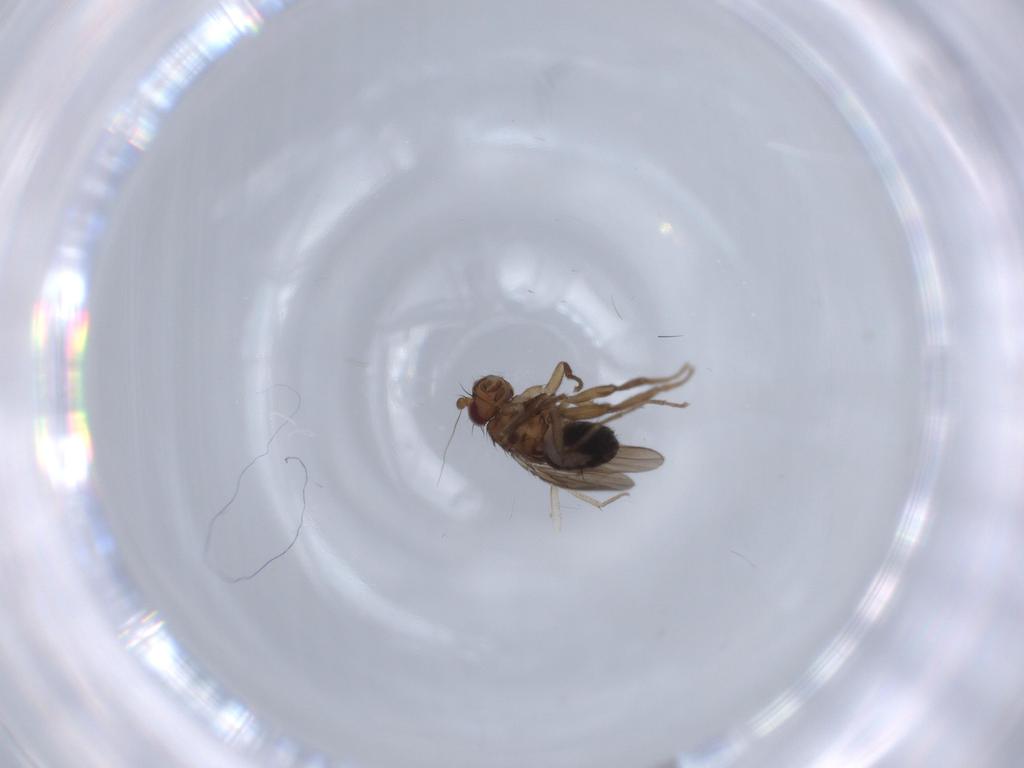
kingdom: Animalia
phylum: Arthropoda
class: Insecta
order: Diptera
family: Sphaeroceridae
